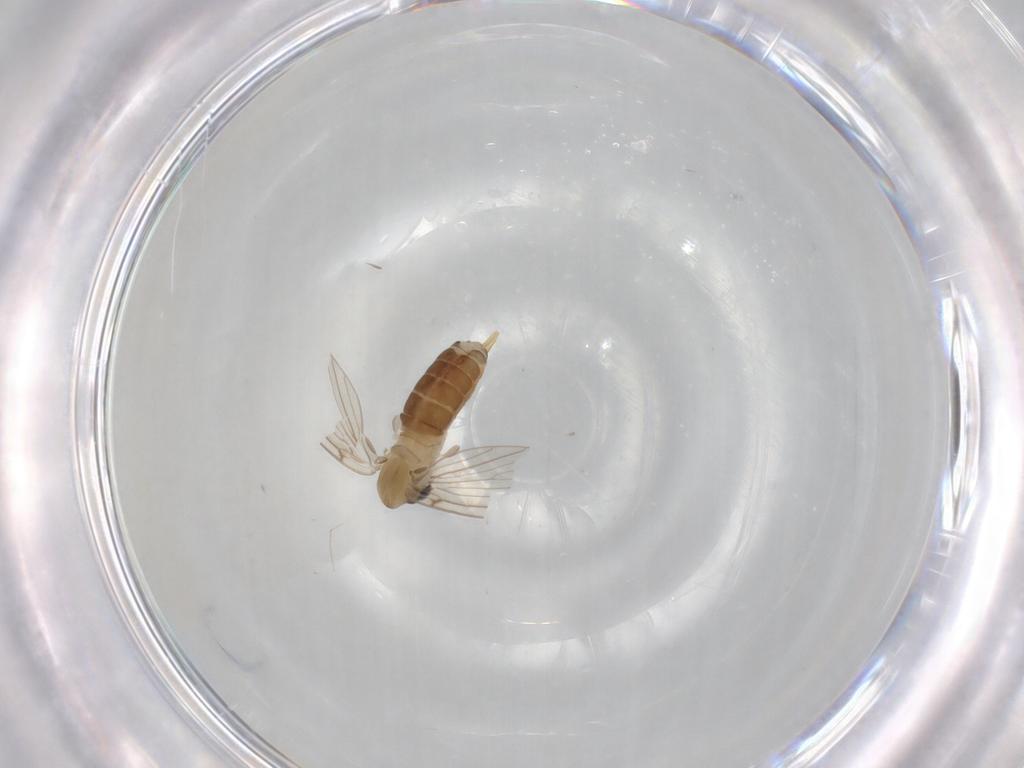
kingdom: Animalia
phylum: Arthropoda
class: Insecta
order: Diptera
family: Psychodidae
